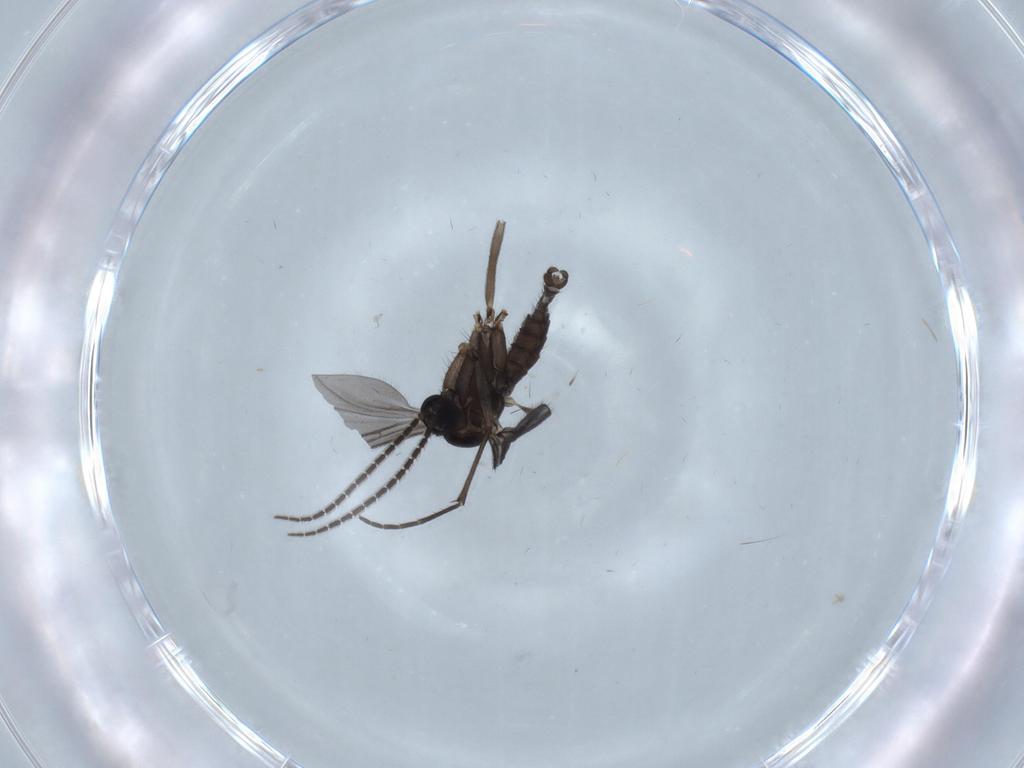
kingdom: Animalia
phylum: Arthropoda
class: Insecta
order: Diptera
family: Sciaridae
